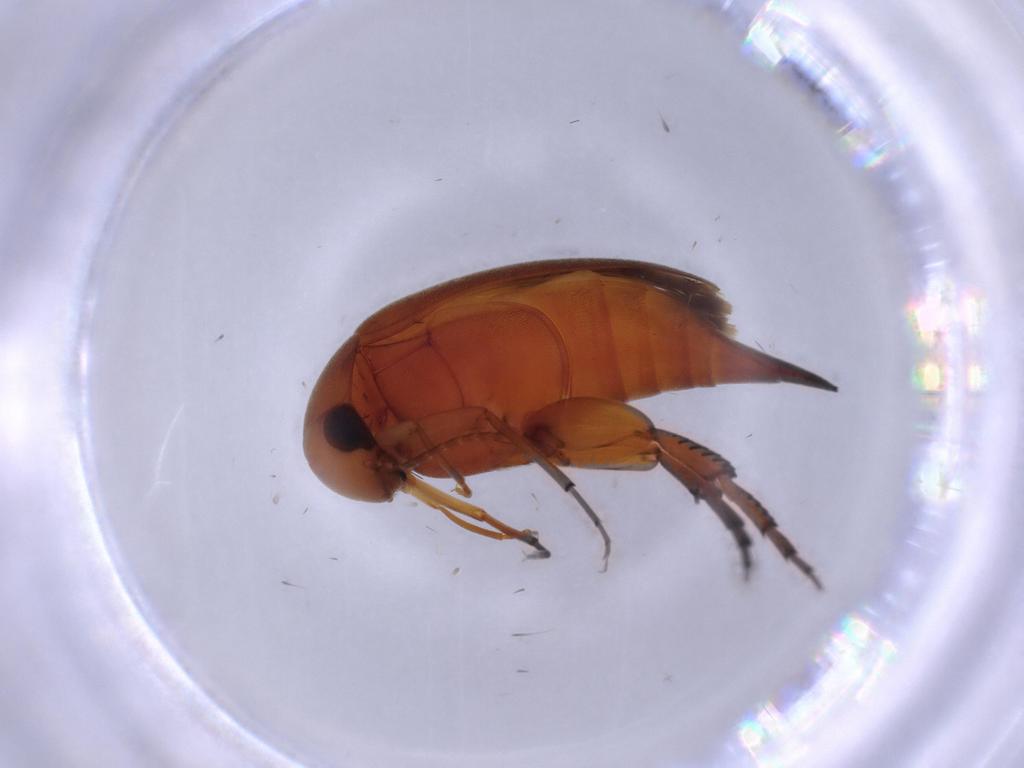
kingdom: Animalia
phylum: Arthropoda
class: Insecta
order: Coleoptera
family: Mordellidae
